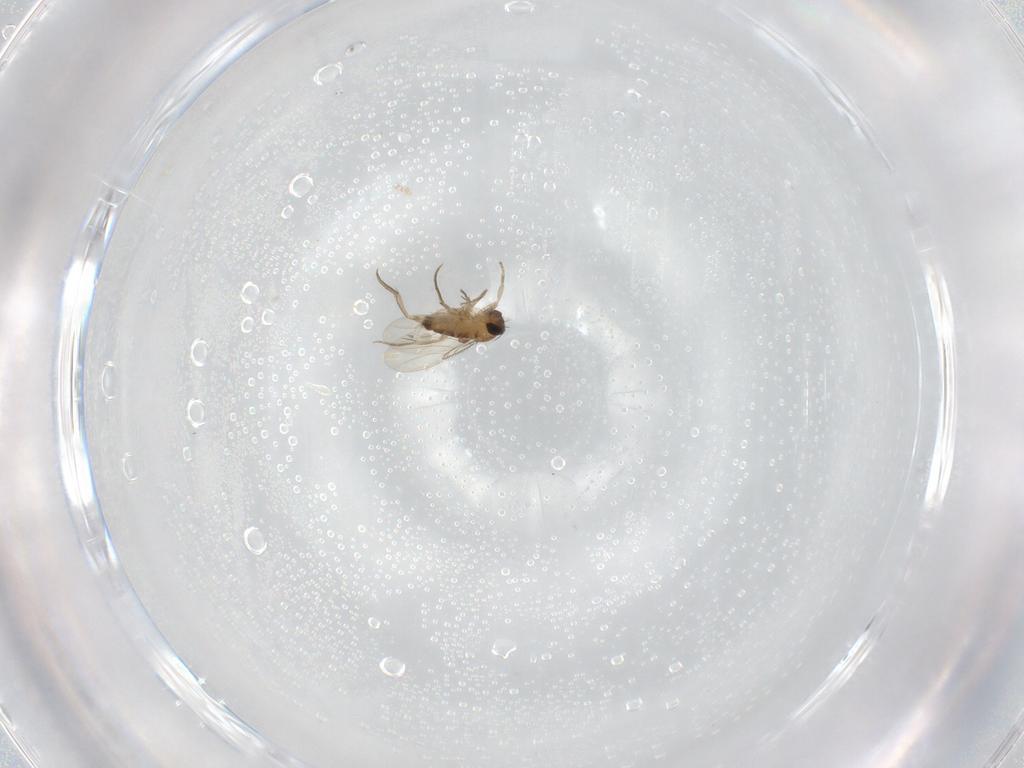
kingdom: Animalia
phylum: Arthropoda
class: Insecta
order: Diptera
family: Phoridae
